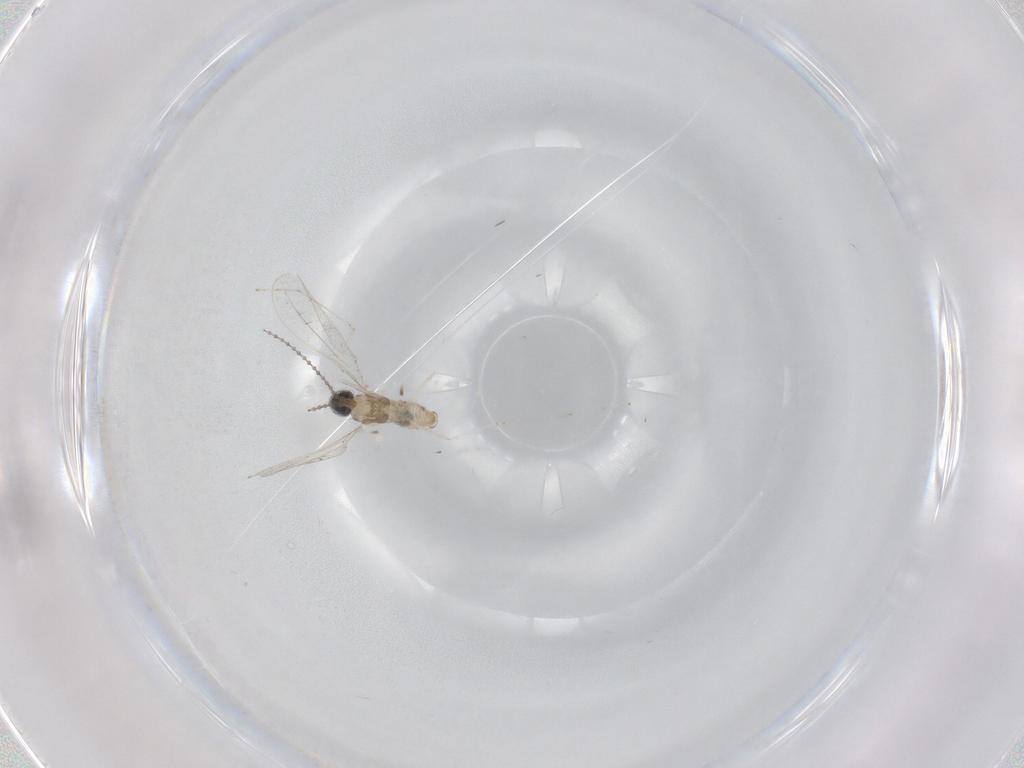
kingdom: Animalia
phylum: Arthropoda
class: Insecta
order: Diptera
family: Cecidomyiidae
